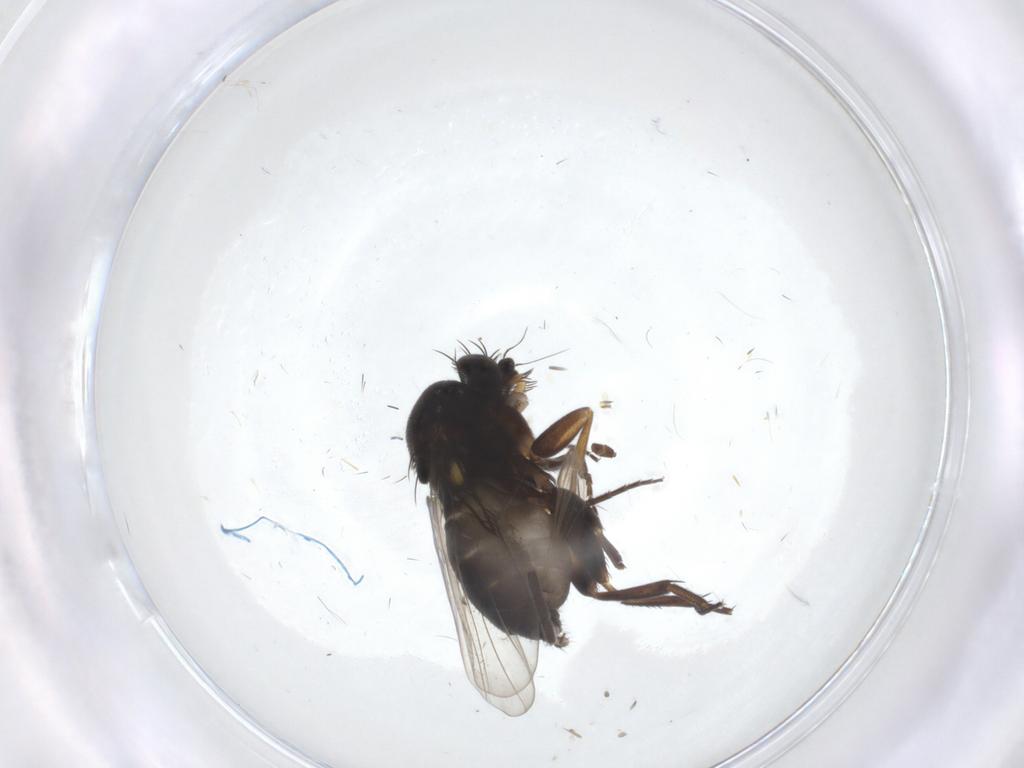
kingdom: Animalia
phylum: Arthropoda
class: Insecta
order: Diptera
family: Phoridae
